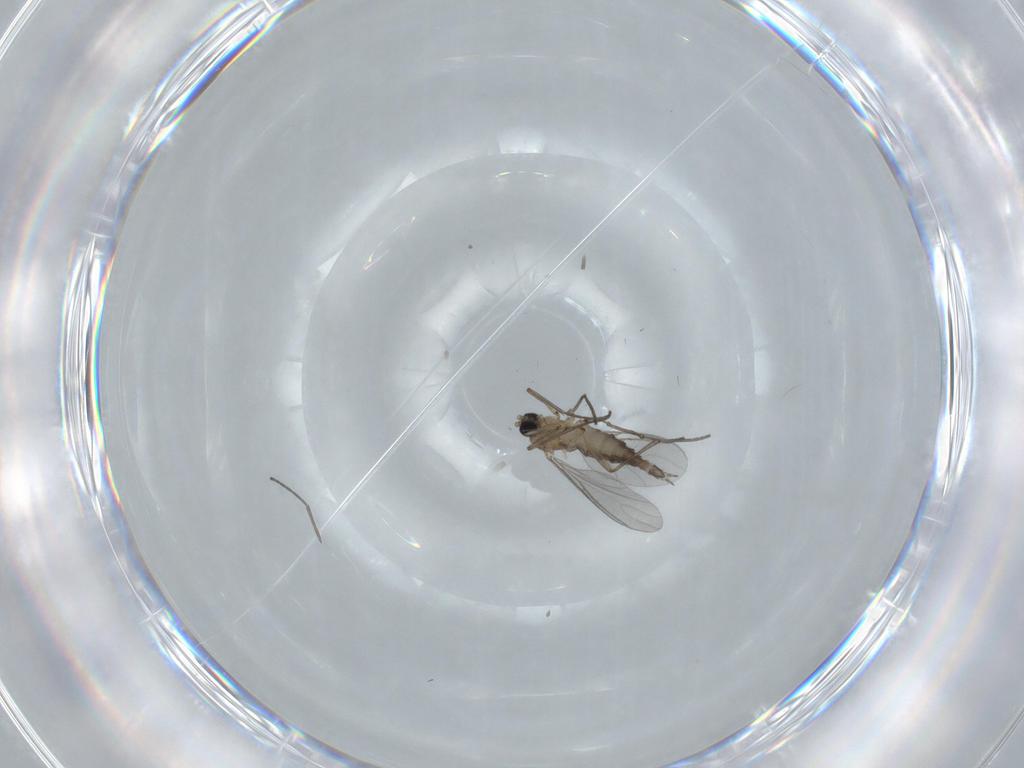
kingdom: Animalia
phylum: Arthropoda
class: Insecta
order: Diptera
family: Sciaridae
